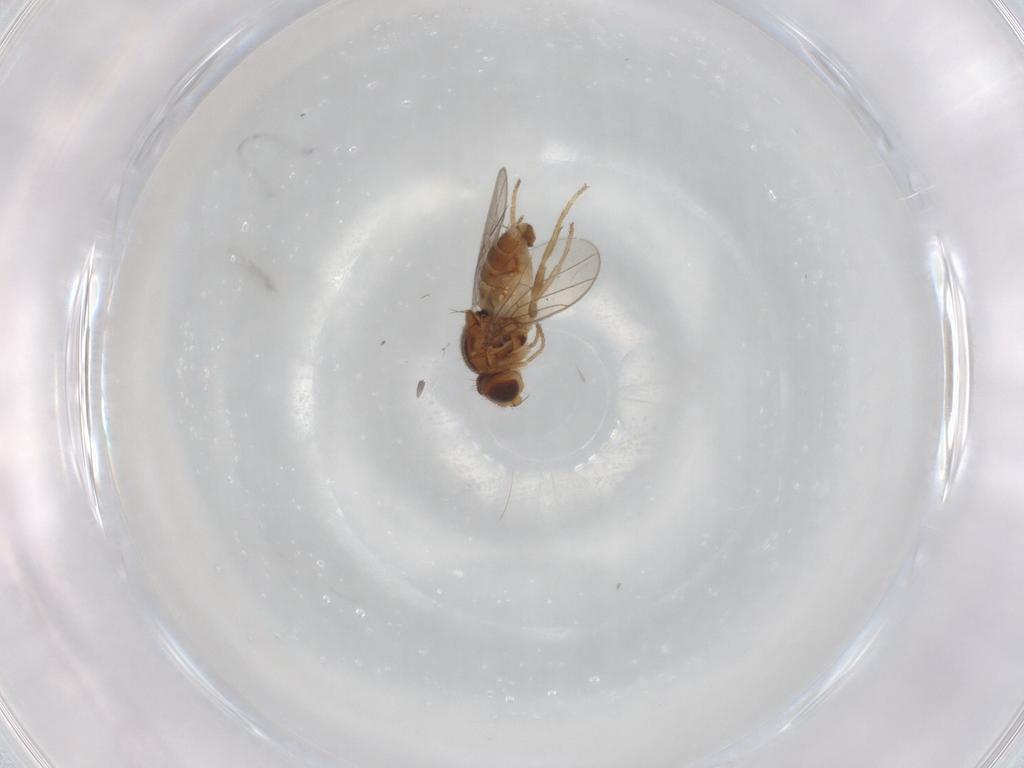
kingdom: Animalia
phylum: Arthropoda
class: Insecta
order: Diptera
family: Chloropidae
